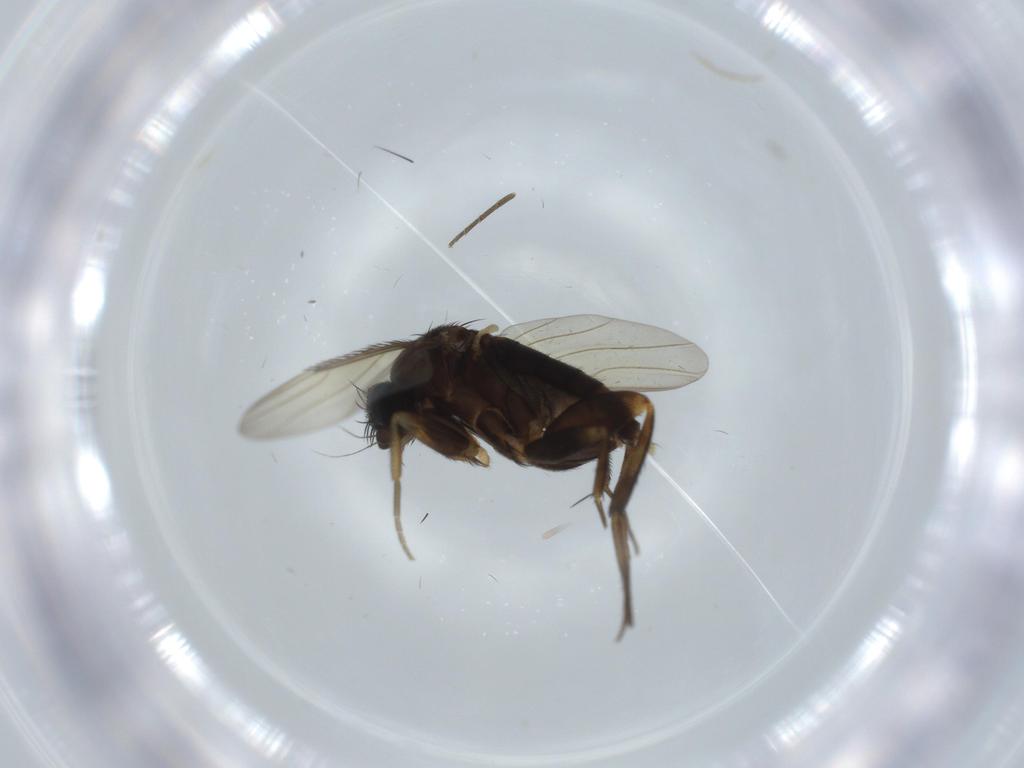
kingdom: Animalia
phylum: Arthropoda
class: Insecta
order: Diptera
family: Phoridae
